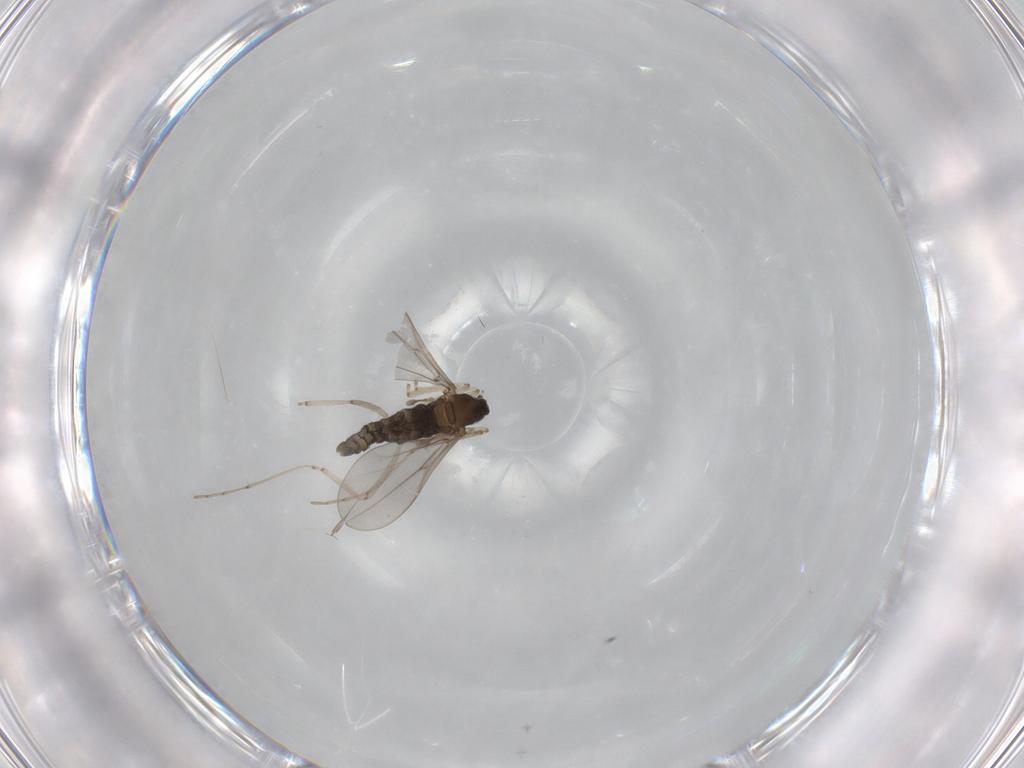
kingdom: Animalia
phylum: Arthropoda
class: Insecta
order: Diptera
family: Cecidomyiidae
